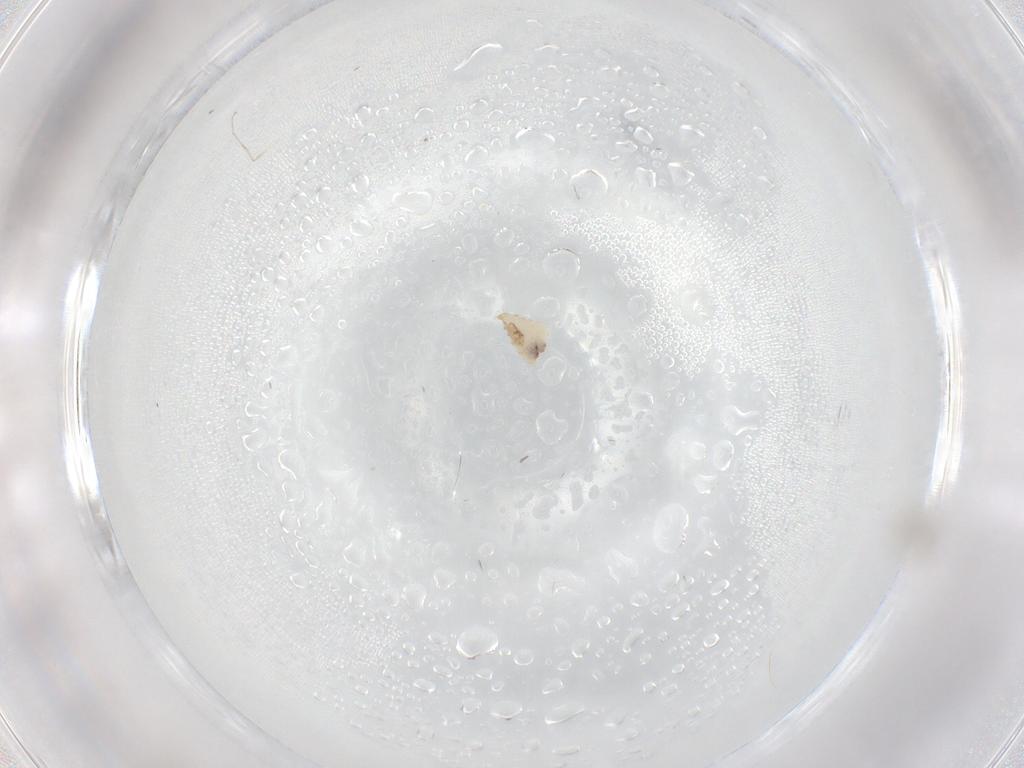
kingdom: Animalia
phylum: Arthropoda
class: Insecta
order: Diptera
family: Cecidomyiidae
